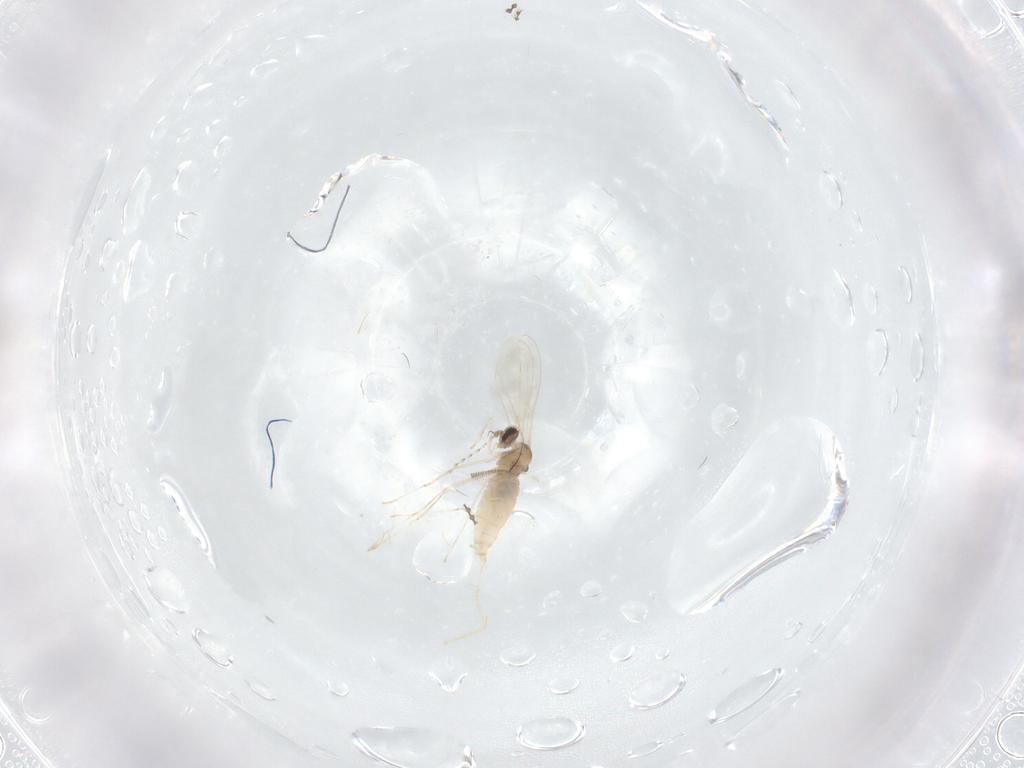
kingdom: Animalia
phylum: Arthropoda
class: Insecta
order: Diptera
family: Cecidomyiidae
